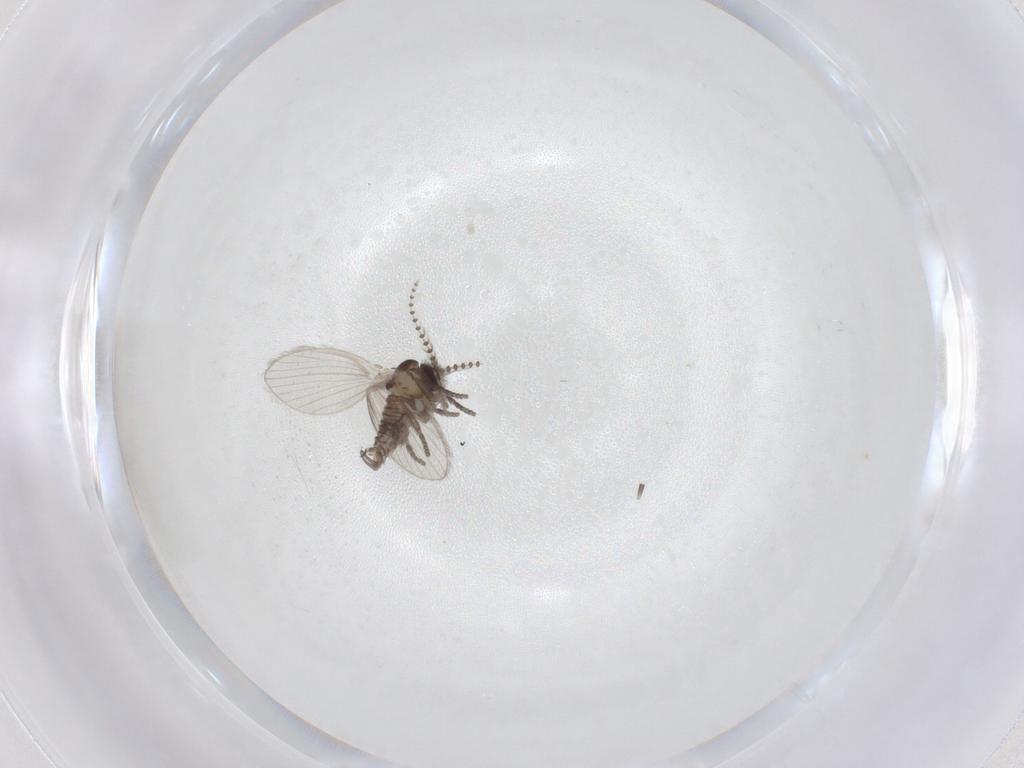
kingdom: Animalia
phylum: Arthropoda
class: Insecta
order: Diptera
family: Psychodidae
